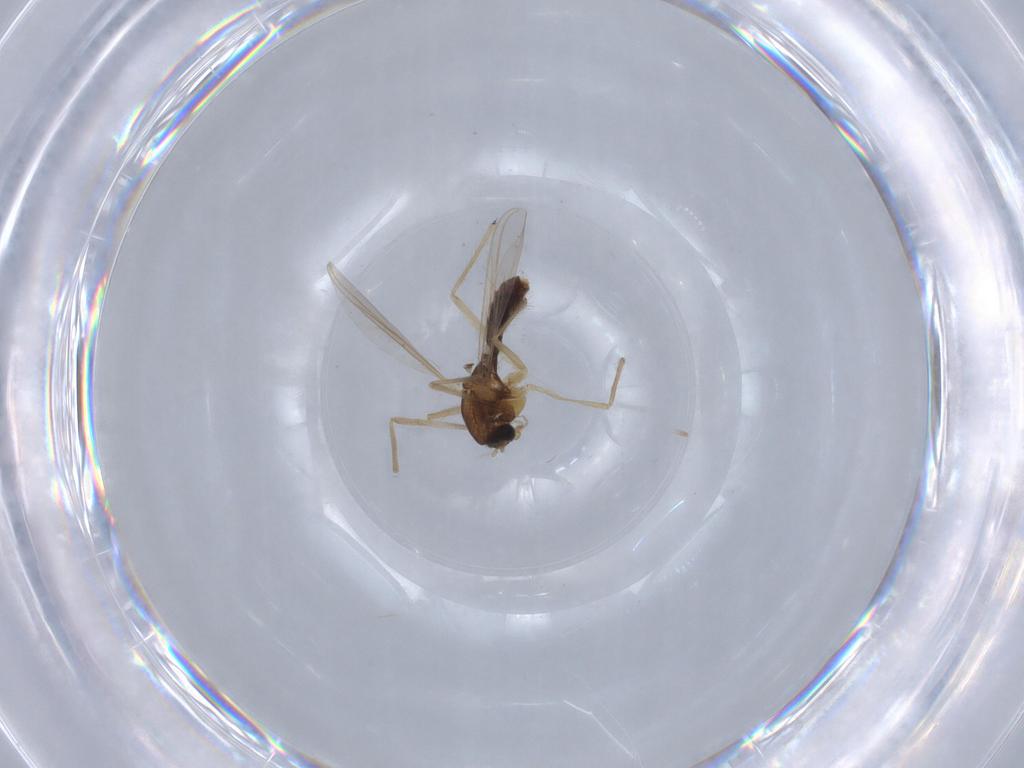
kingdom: Animalia
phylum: Arthropoda
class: Insecta
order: Diptera
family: Chironomidae
